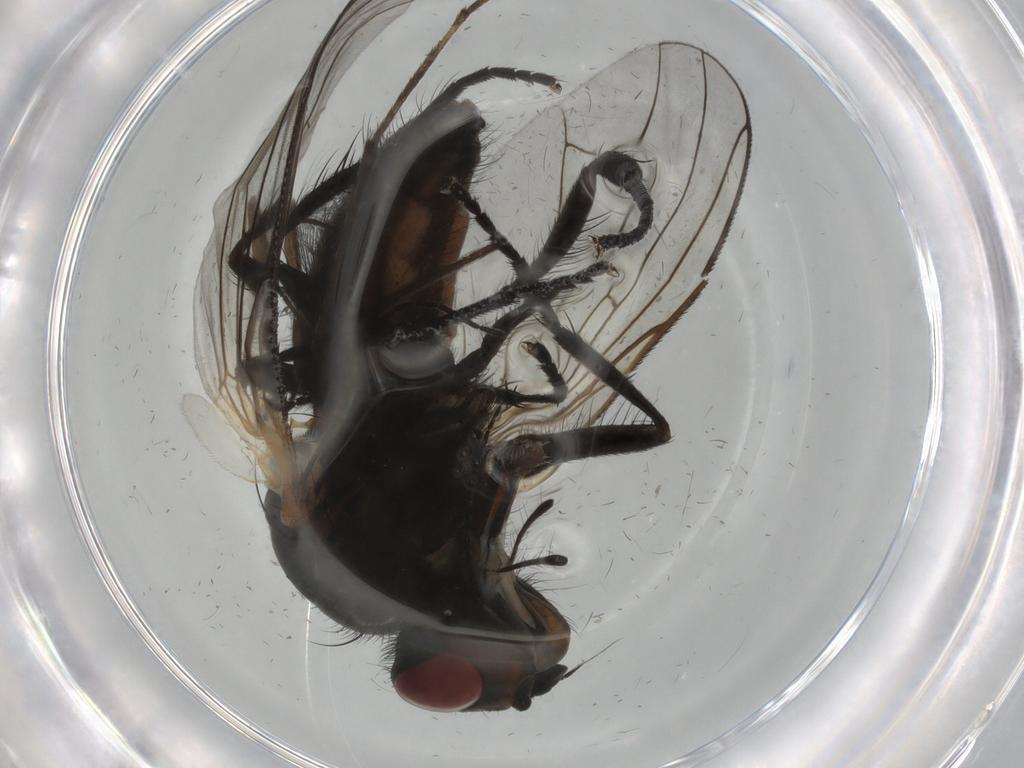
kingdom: Animalia
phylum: Arthropoda
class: Insecta
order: Diptera
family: Anthomyiidae
